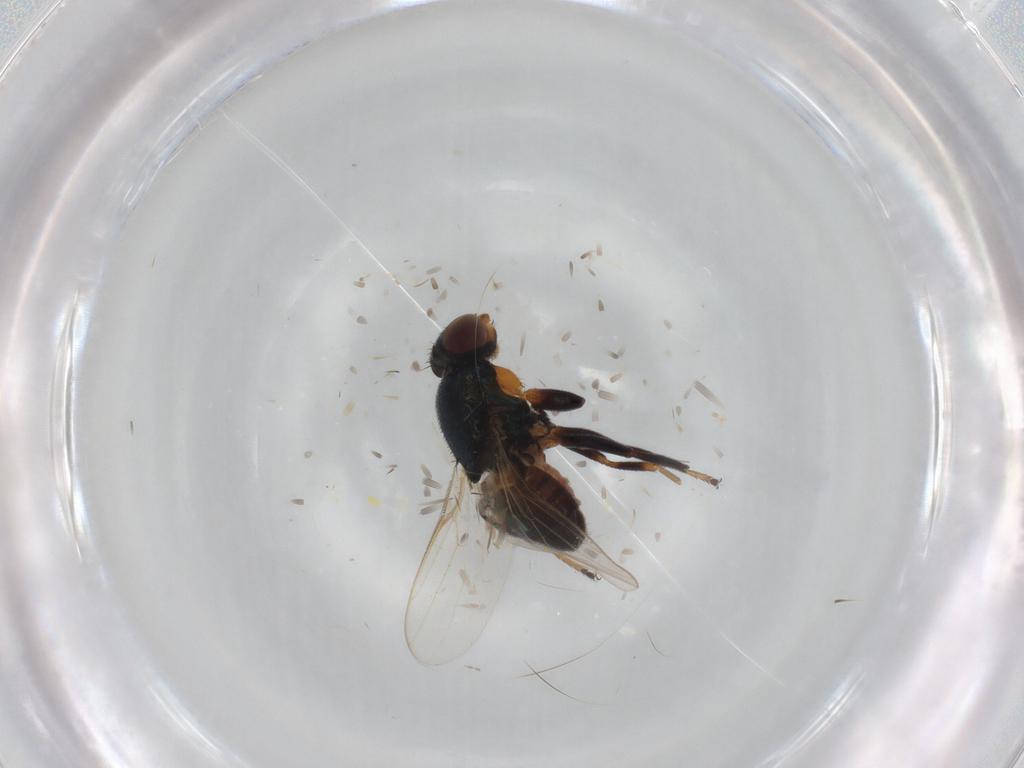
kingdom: Animalia
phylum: Arthropoda
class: Insecta
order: Diptera
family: Chloropidae
